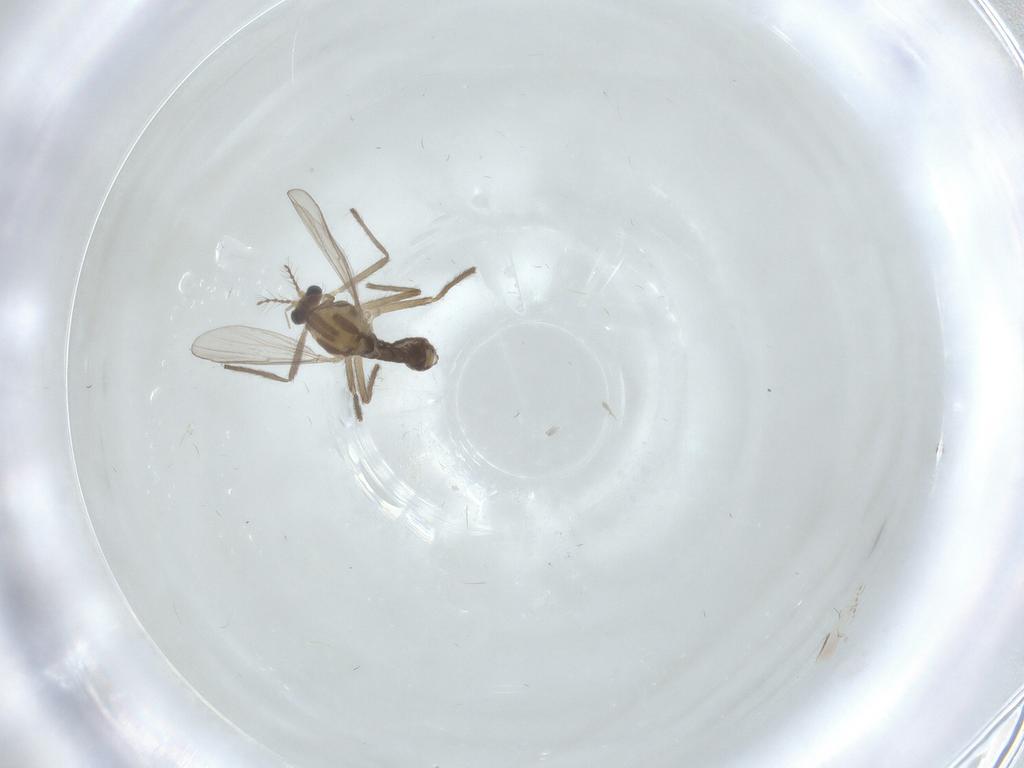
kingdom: Animalia
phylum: Arthropoda
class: Insecta
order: Diptera
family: Chironomidae
